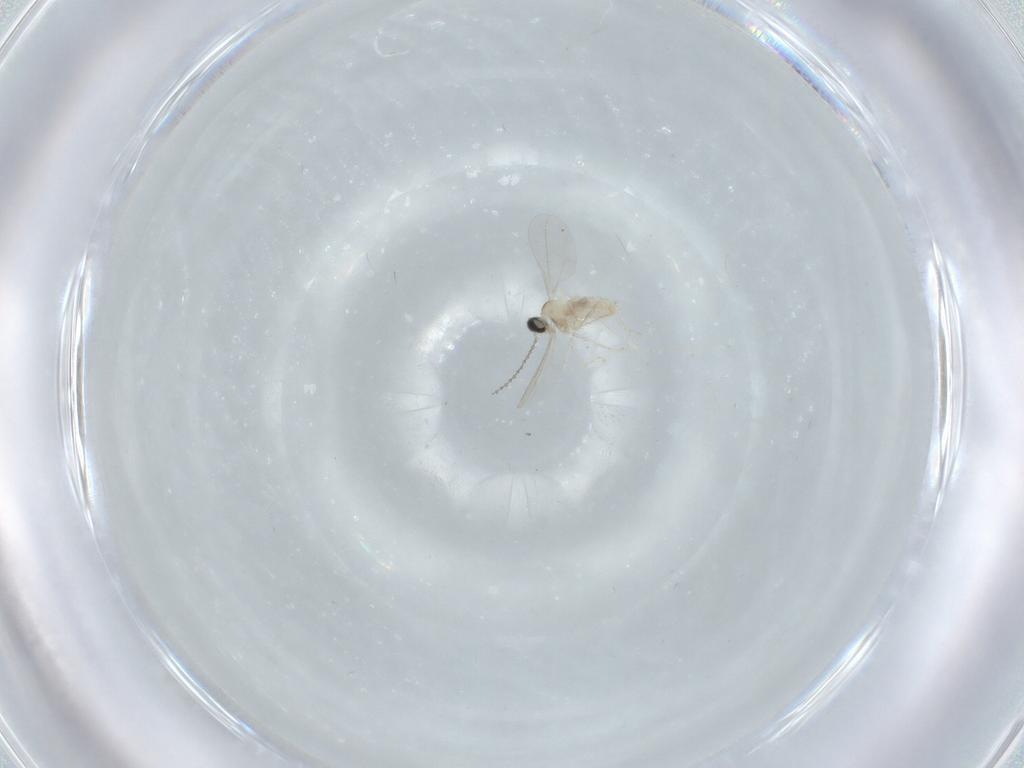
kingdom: Animalia
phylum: Arthropoda
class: Insecta
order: Diptera
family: Cecidomyiidae
